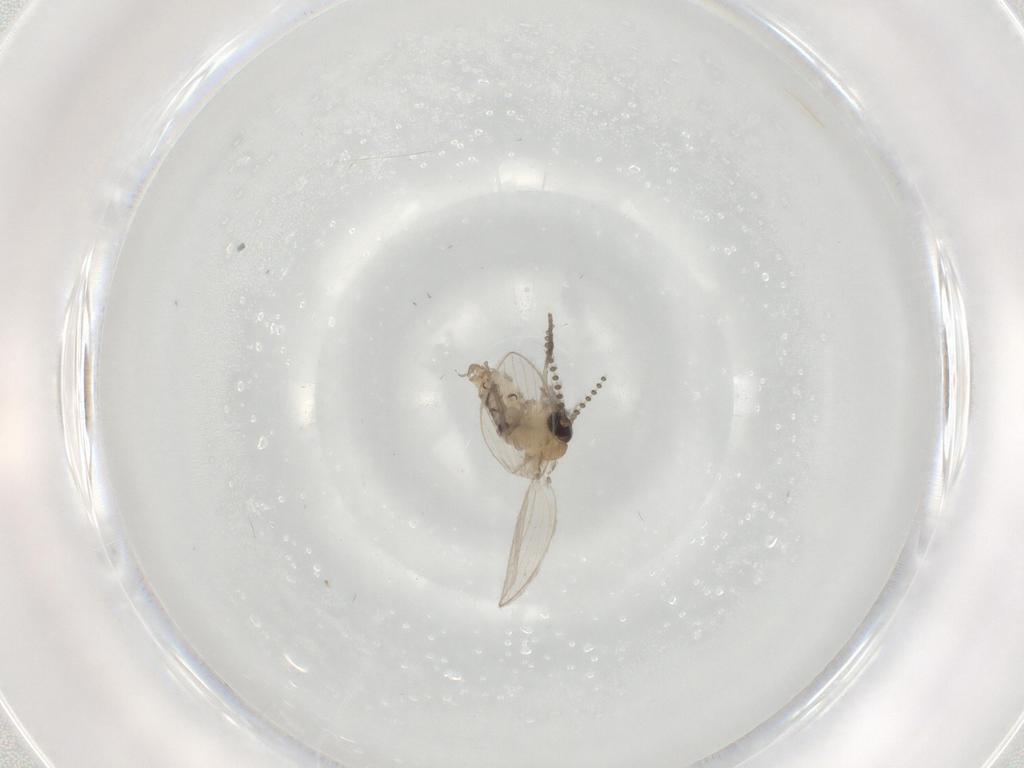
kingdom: Animalia
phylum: Arthropoda
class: Insecta
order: Diptera
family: Psychodidae
